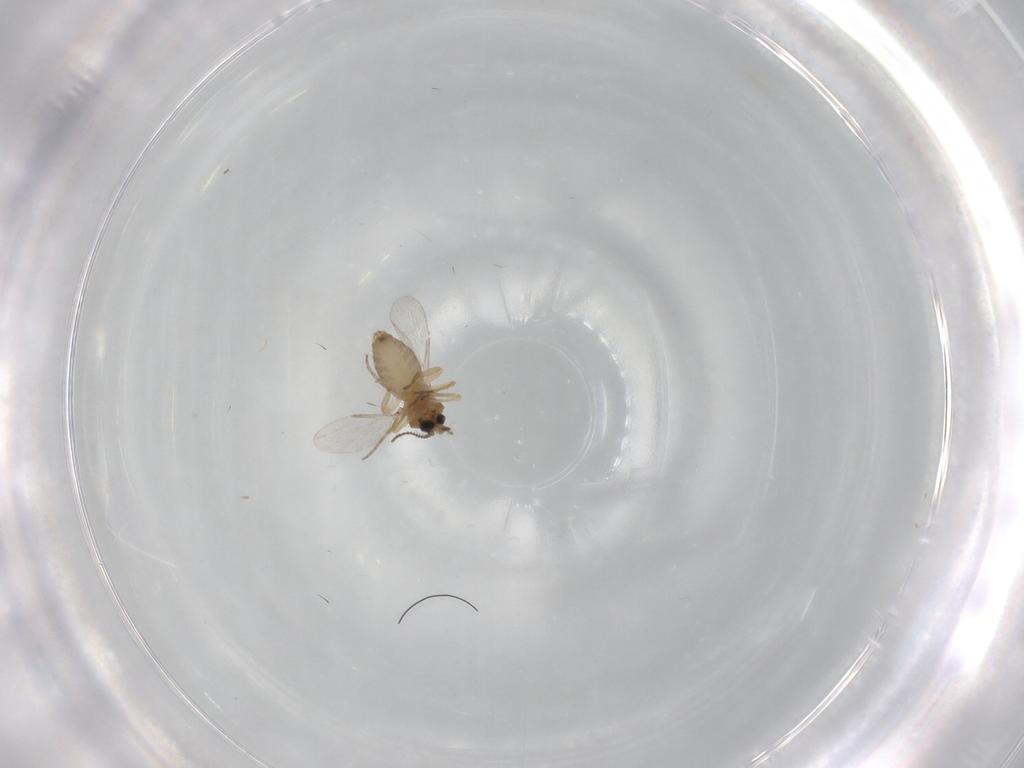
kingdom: Animalia
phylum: Arthropoda
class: Insecta
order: Diptera
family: Ceratopogonidae
